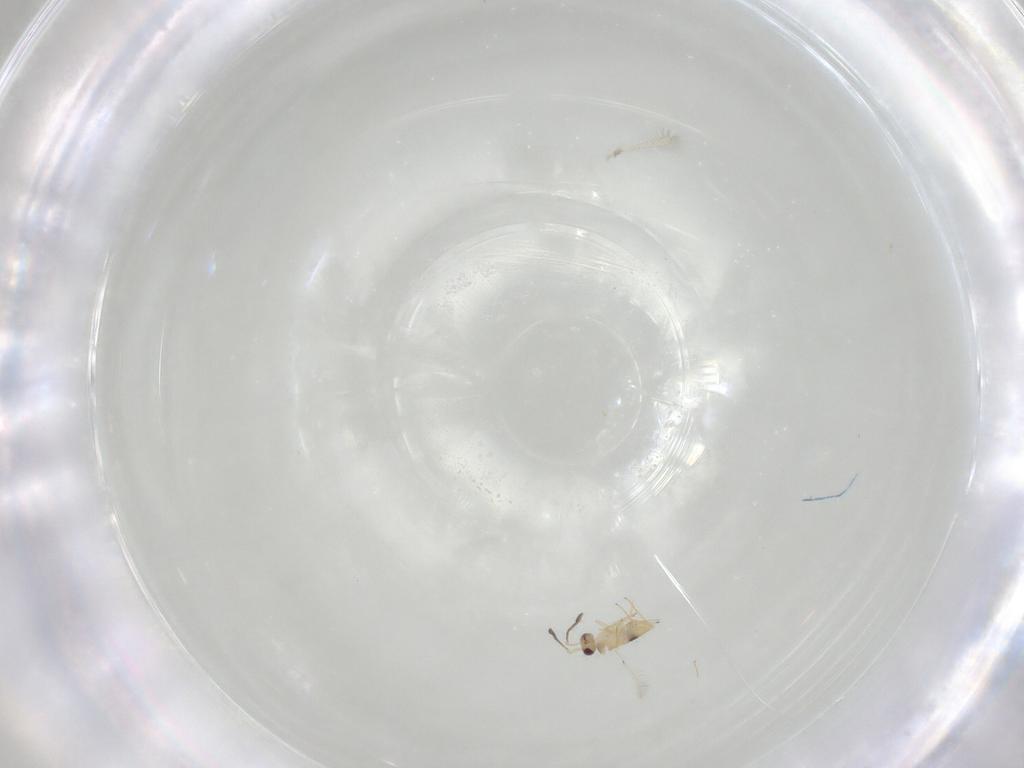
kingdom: Animalia
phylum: Arthropoda
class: Insecta
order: Hymenoptera
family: Mymaridae
